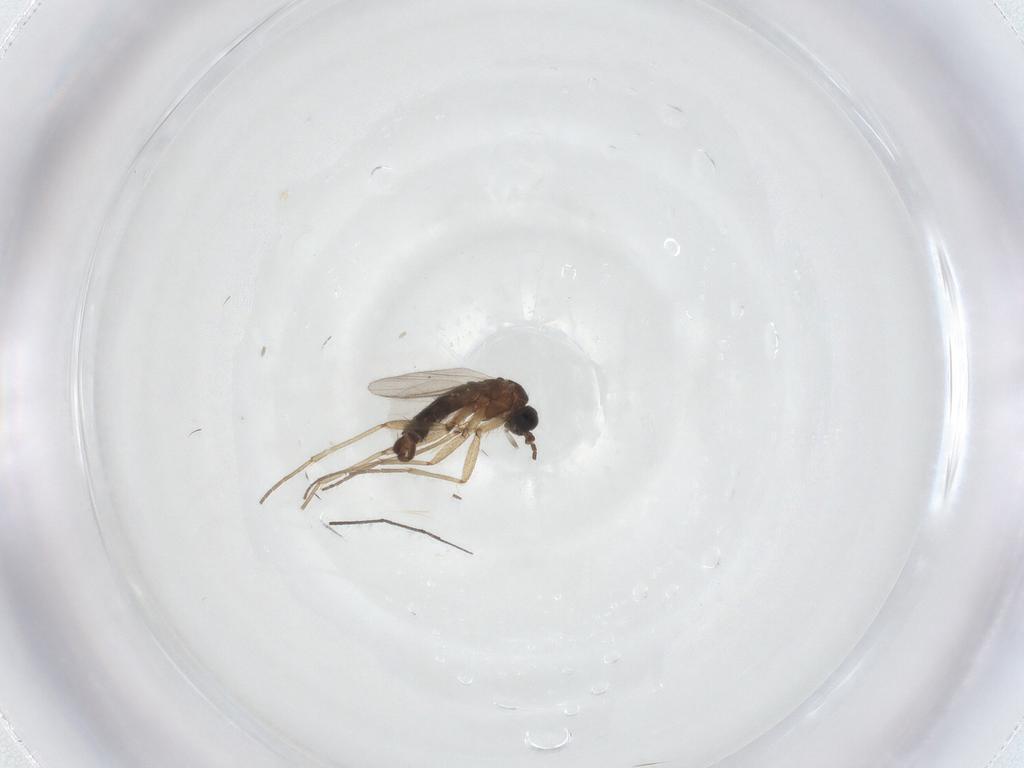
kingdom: Animalia
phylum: Arthropoda
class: Insecta
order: Diptera
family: Sciaridae
